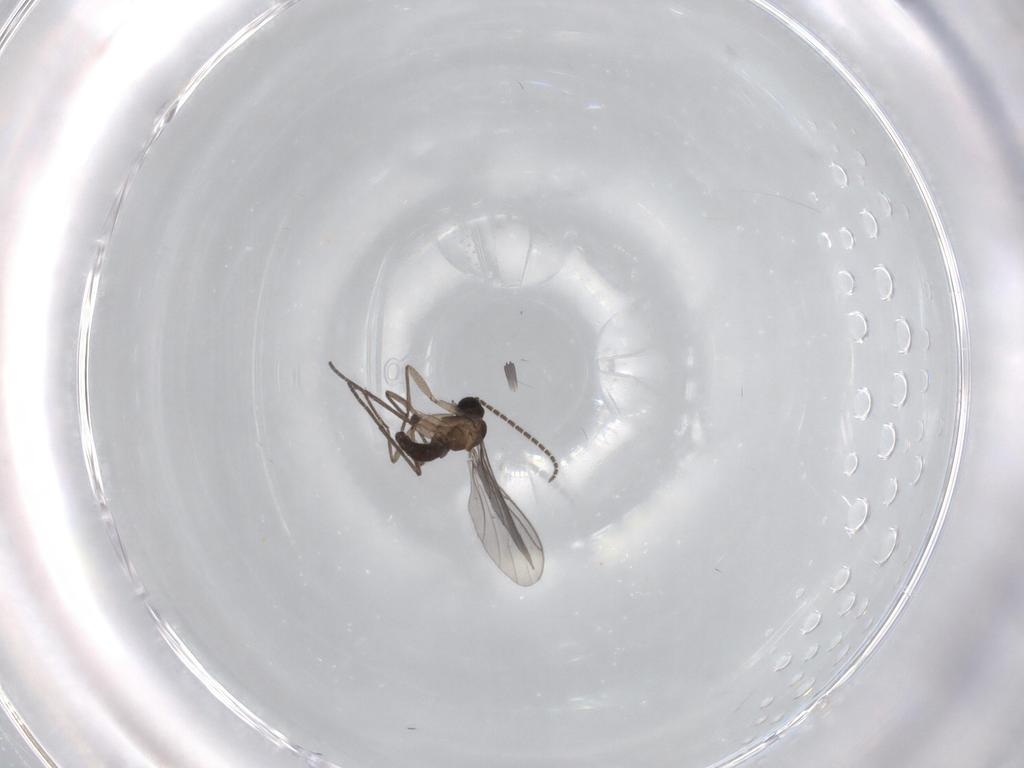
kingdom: Animalia
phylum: Arthropoda
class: Insecta
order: Diptera
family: Sciaridae
